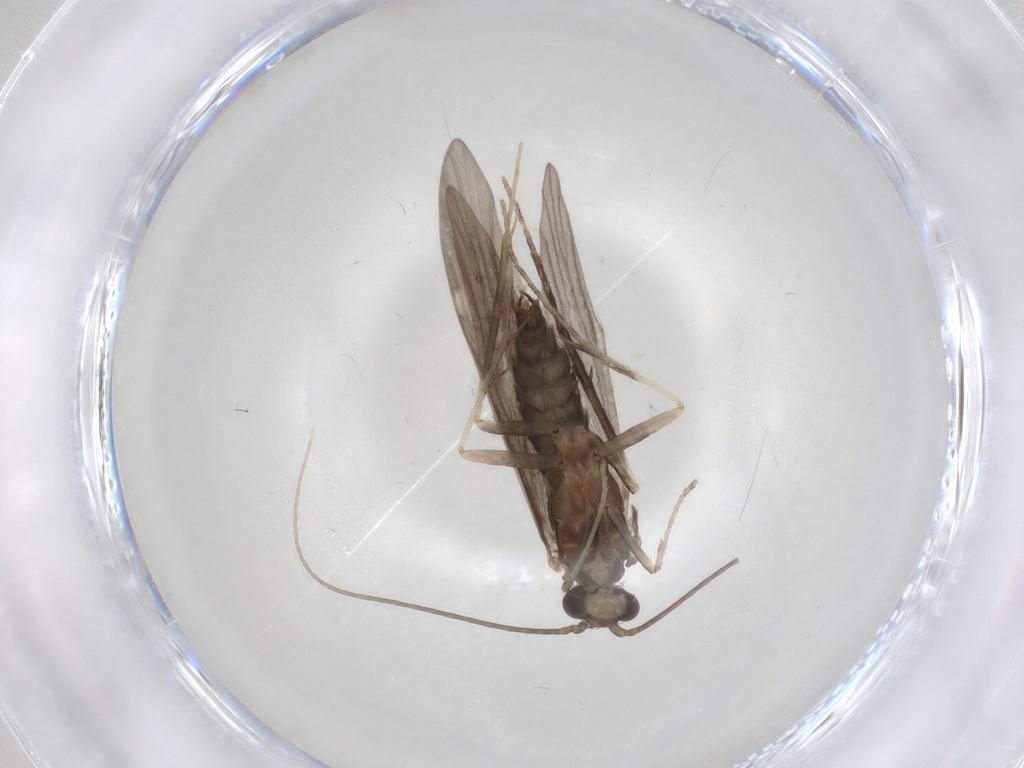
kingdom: Animalia
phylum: Arthropoda
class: Insecta
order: Trichoptera
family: Xiphocentronidae
